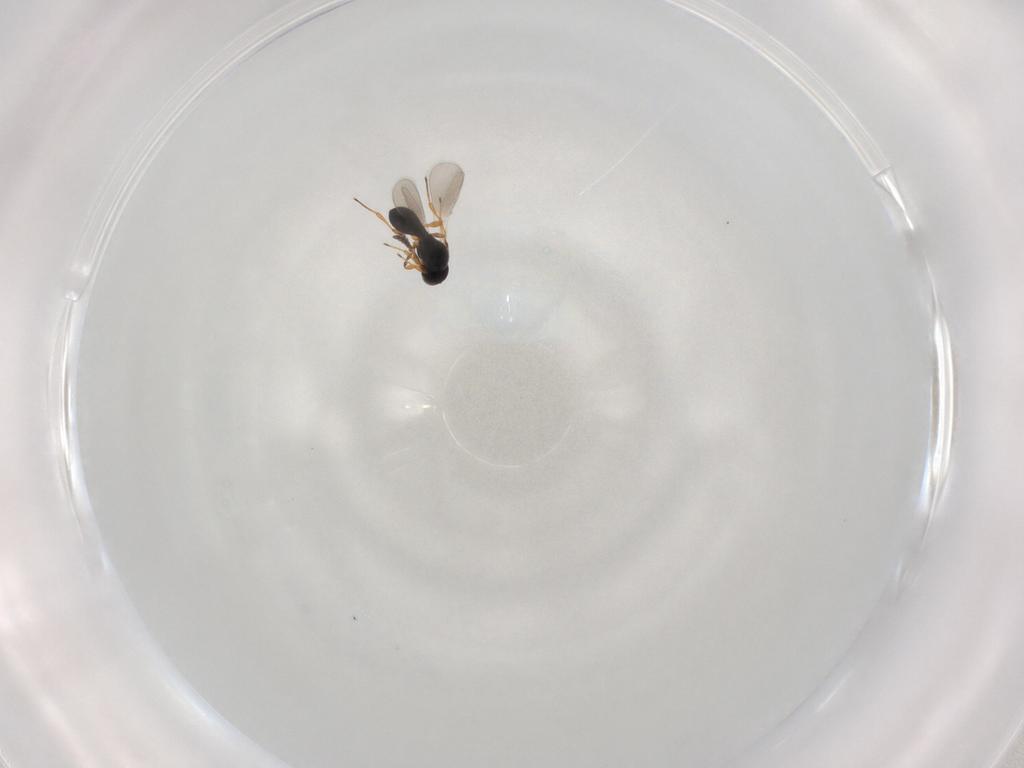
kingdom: Animalia
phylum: Arthropoda
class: Insecta
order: Hymenoptera
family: Platygastridae
